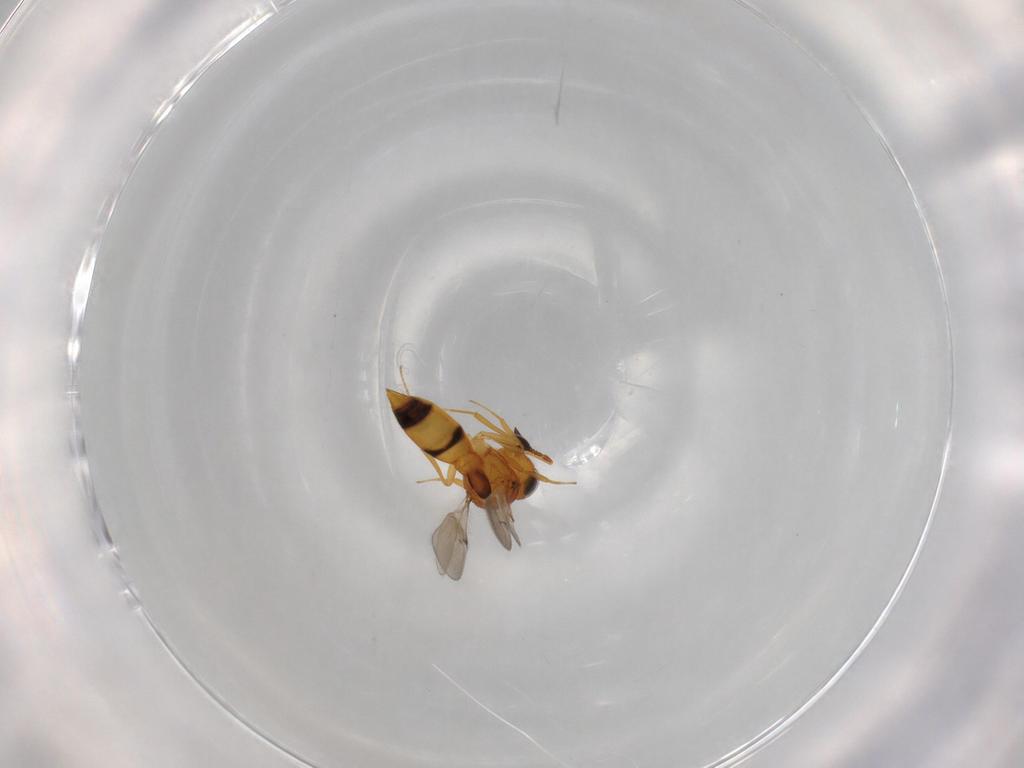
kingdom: Animalia
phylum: Arthropoda
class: Insecta
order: Hymenoptera
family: Scelionidae
